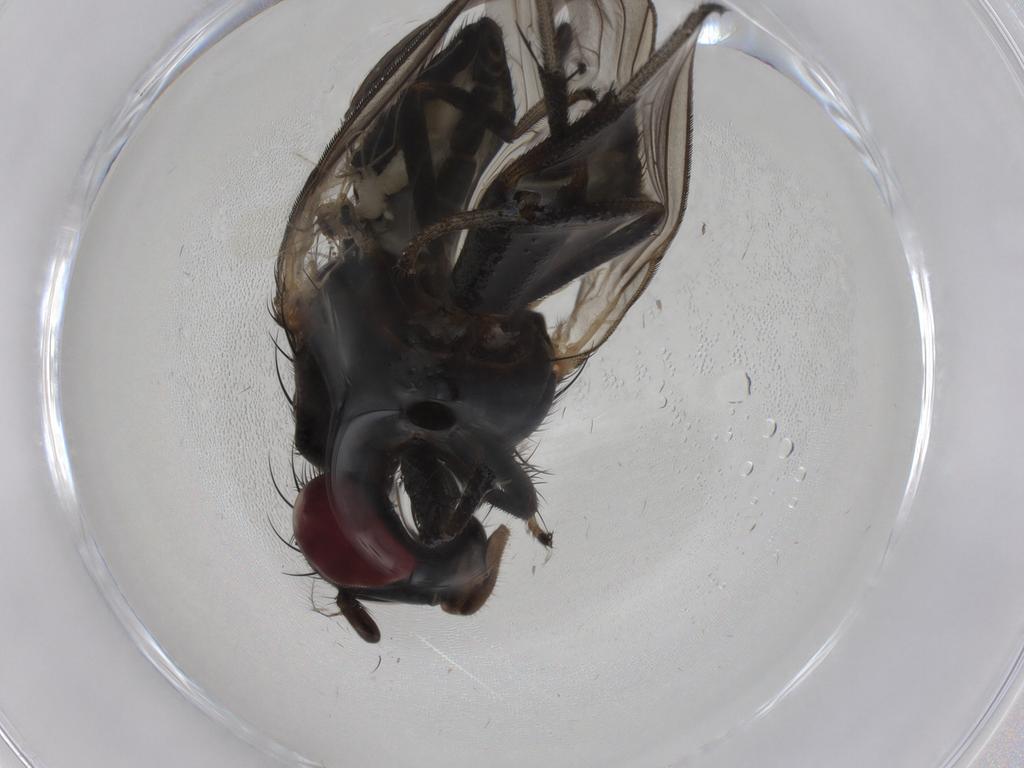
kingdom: Animalia
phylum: Arthropoda
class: Insecta
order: Diptera
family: Lauxaniidae
